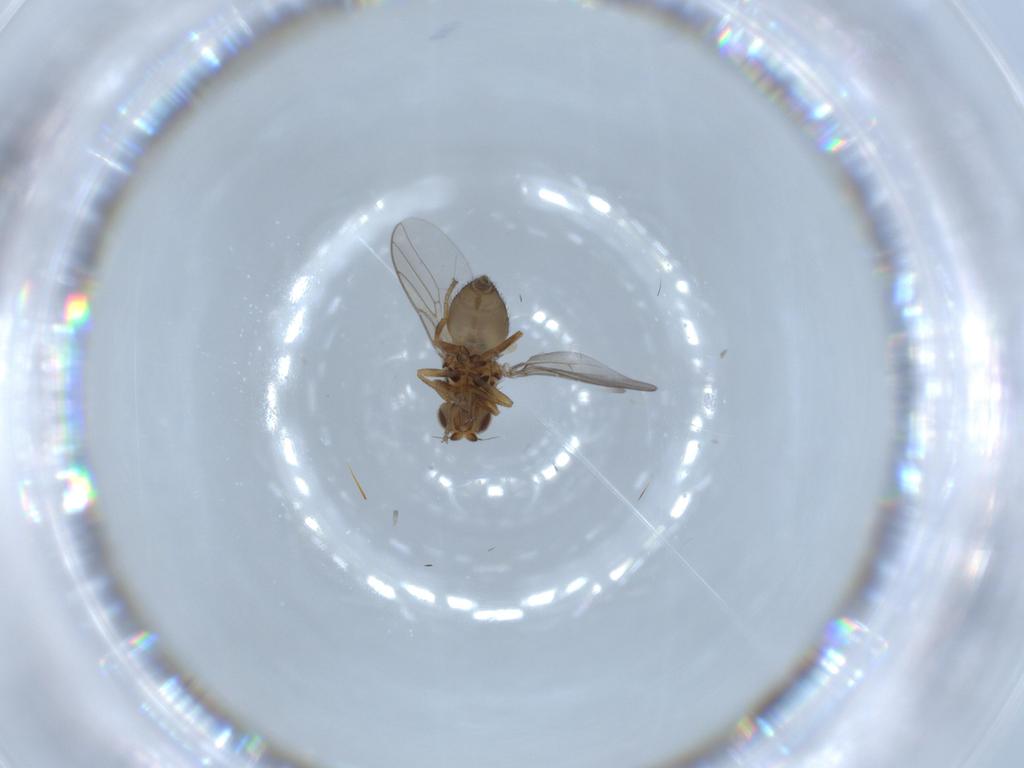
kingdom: Animalia
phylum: Arthropoda
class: Insecta
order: Diptera
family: Chloropidae
